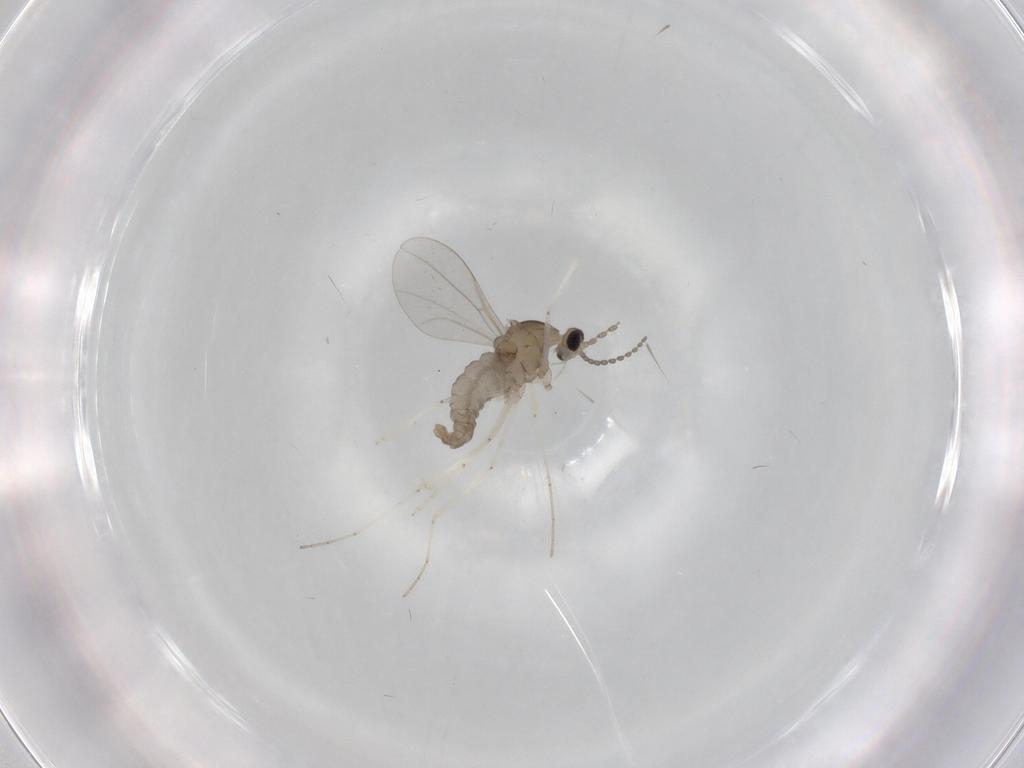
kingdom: Animalia
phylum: Arthropoda
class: Insecta
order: Diptera
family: Cecidomyiidae
